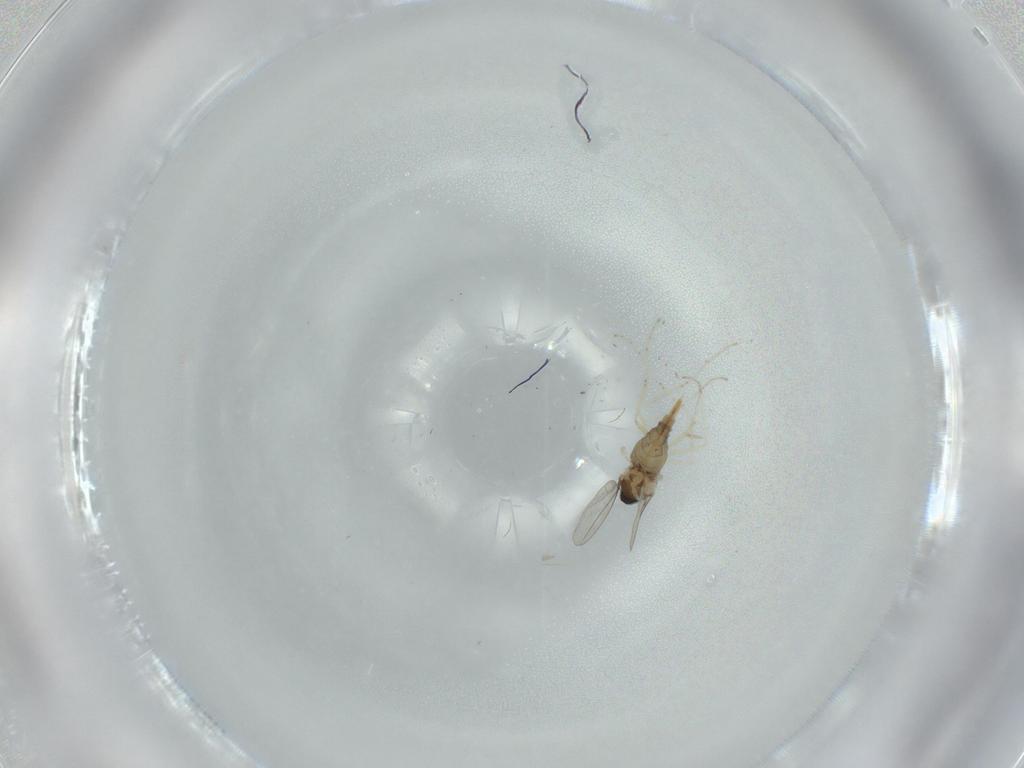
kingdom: Animalia
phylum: Arthropoda
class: Insecta
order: Diptera
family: Cecidomyiidae
